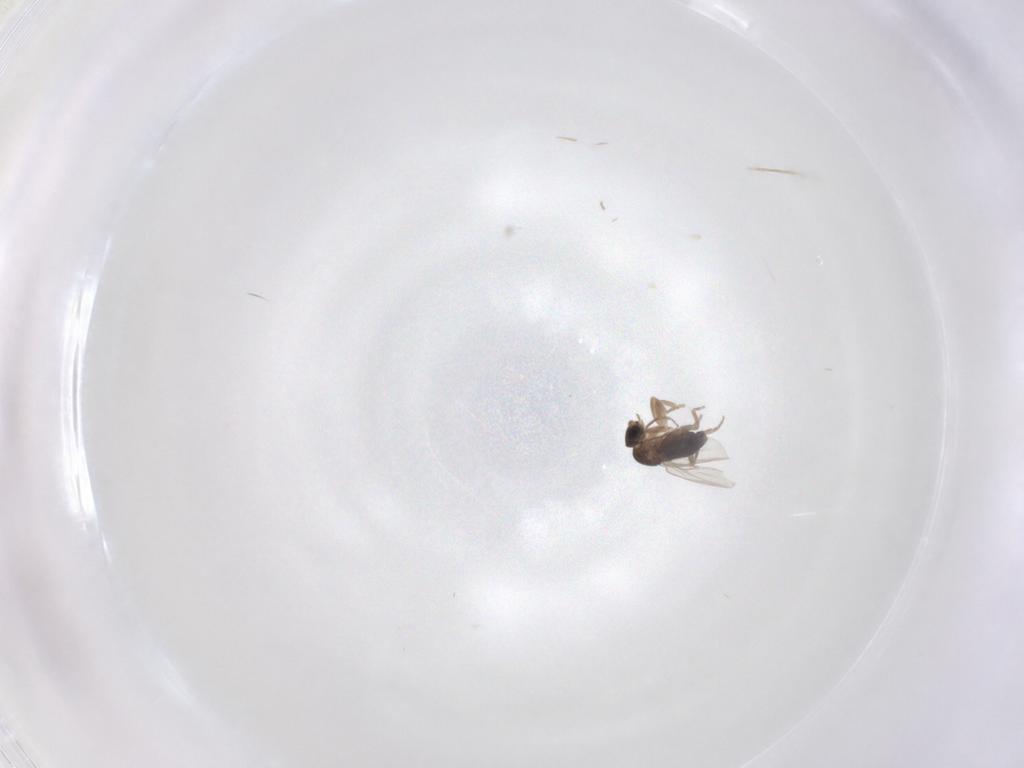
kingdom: Animalia
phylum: Arthropoda
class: Insecta
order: Diptera
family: Phoridae
